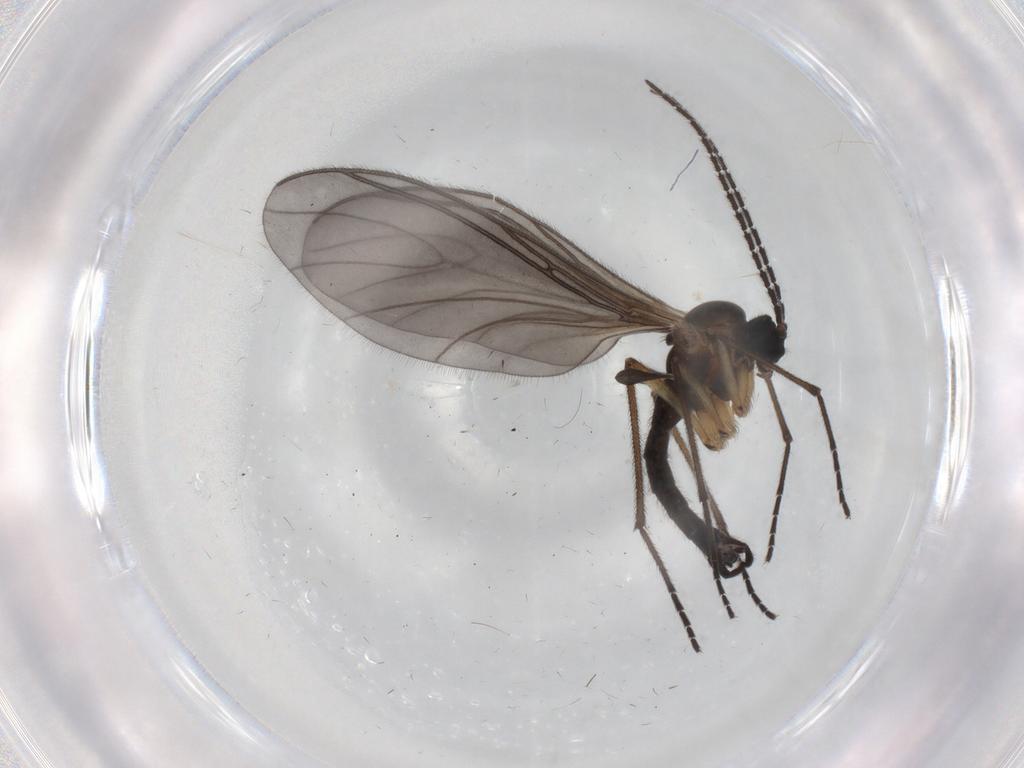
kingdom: Animalia
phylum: Arthropoda
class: Insecta
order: Diptera
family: Sciaridae
